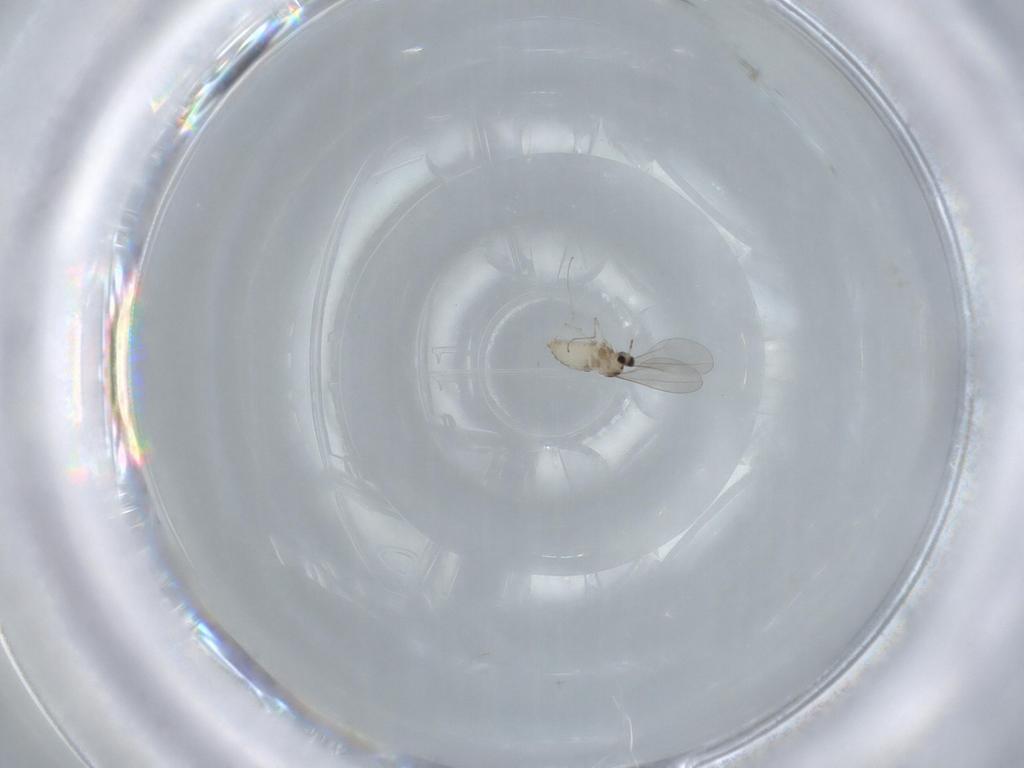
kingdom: Animalia
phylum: Arthropoda
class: Insecta
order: Diptera
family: Cecidomyiidae
